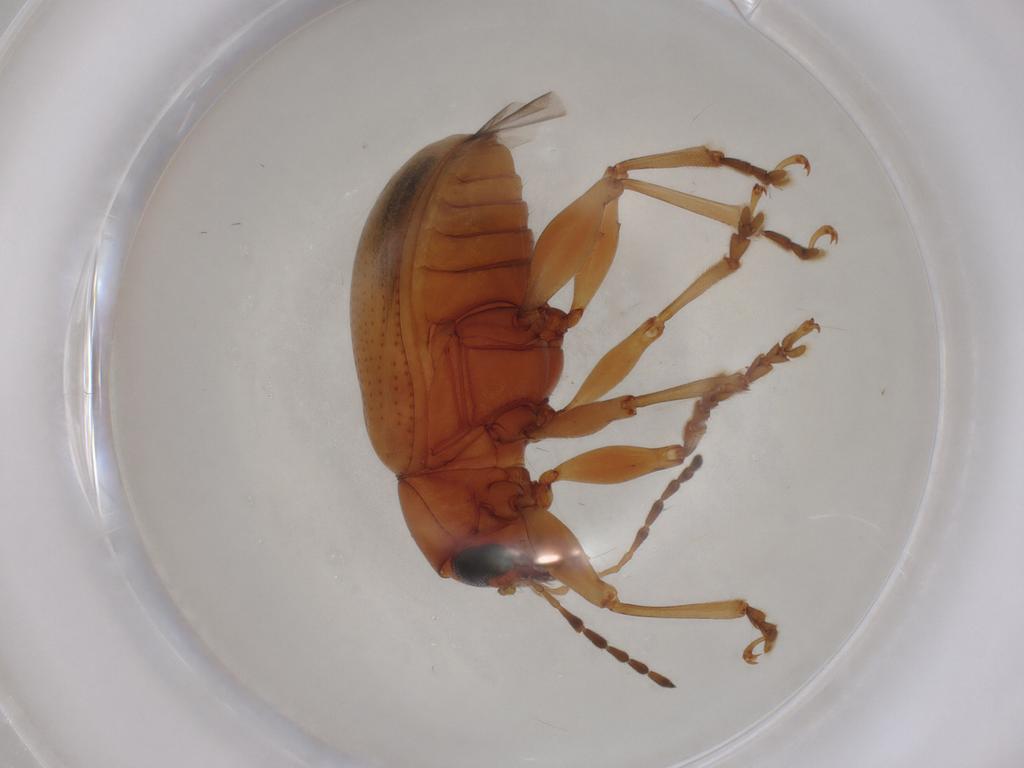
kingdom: Animalia
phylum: Arthropoda
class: Insecta
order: Coleoptera
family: Chrysomelidae
